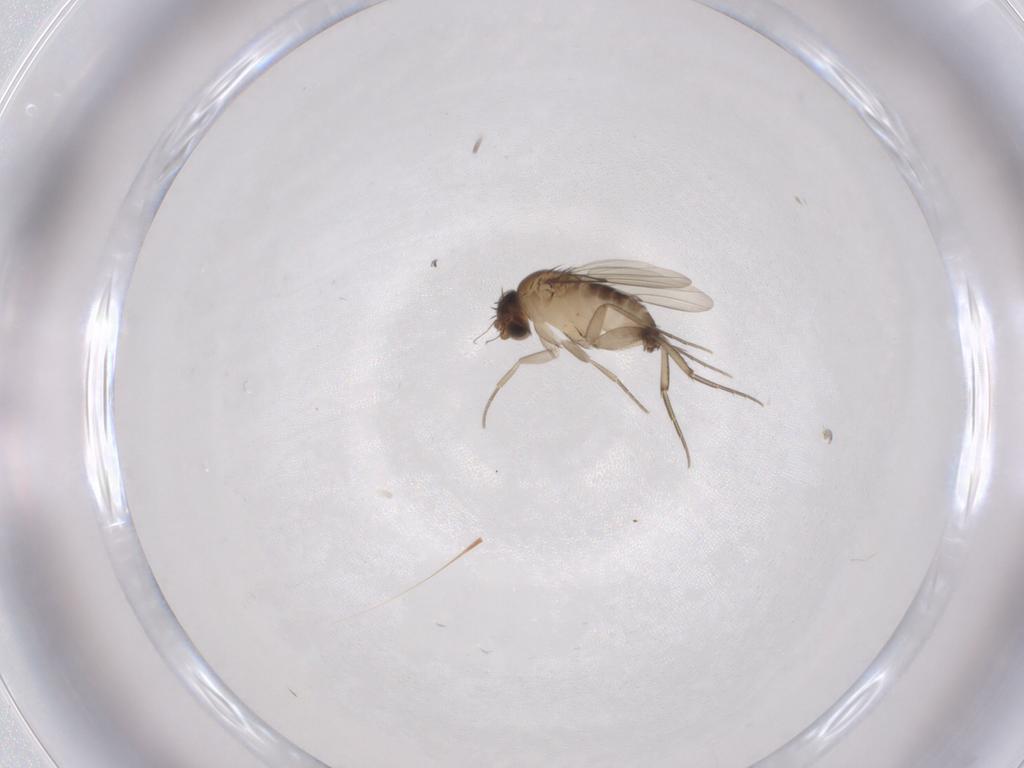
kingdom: Animalia
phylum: Arthropoda
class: Insecta
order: Diptera
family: Phoridae
